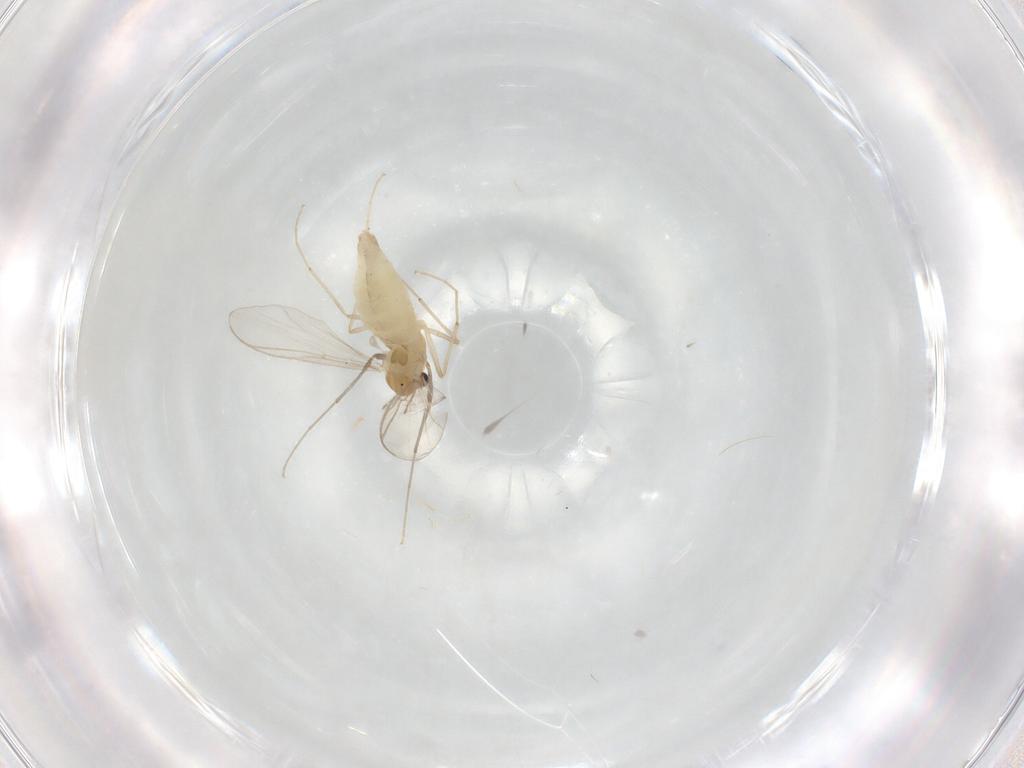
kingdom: Animalia
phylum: Arthropoda
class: Insecta
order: Diptera
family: Chironomidae
